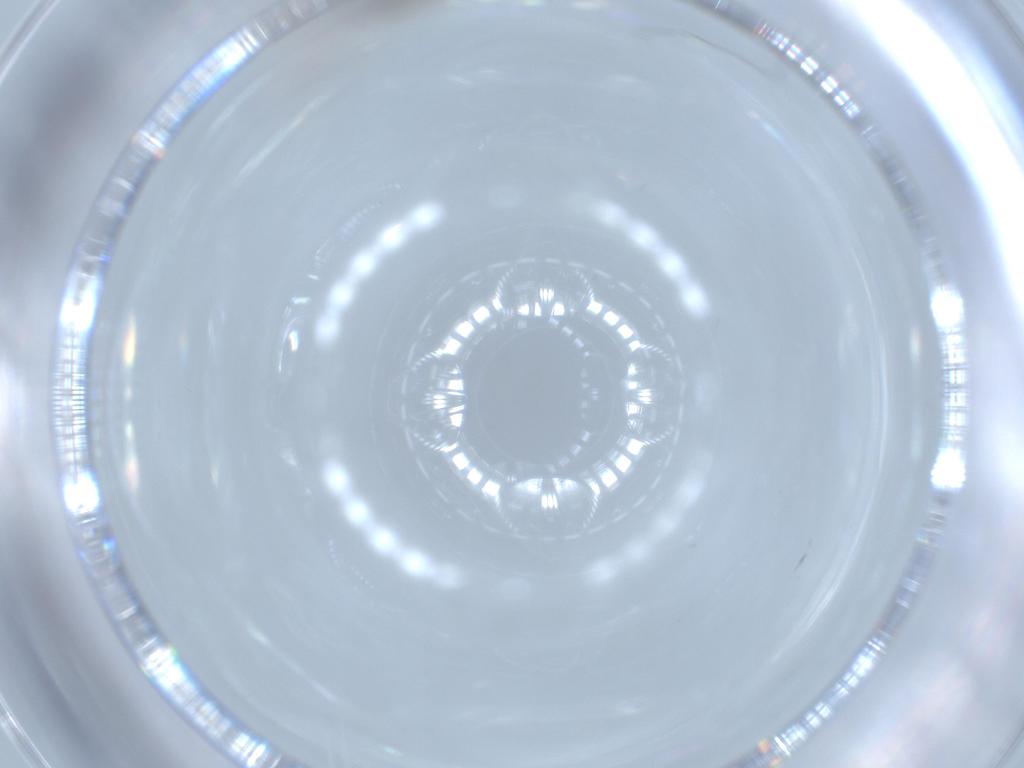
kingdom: Animalia
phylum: Arthropoda
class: Insecta
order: Diptera
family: Cecidomyiidae
